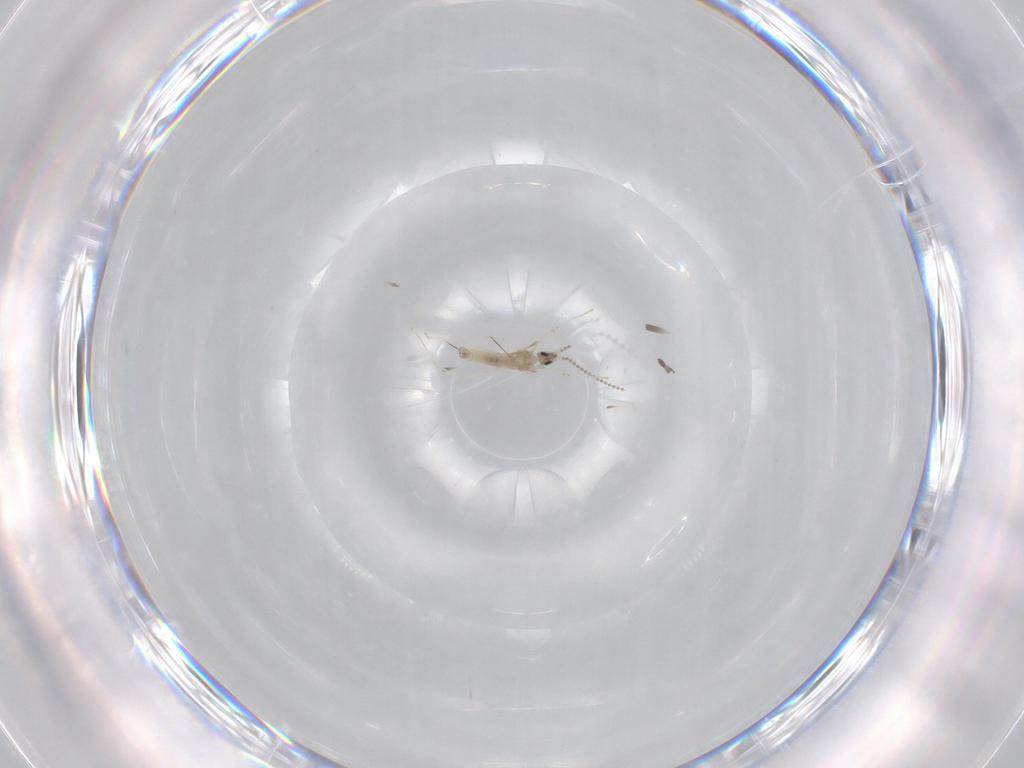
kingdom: Animalia
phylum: Arthropoda
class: Insecta
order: Diptera
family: Cecidomyiidae
